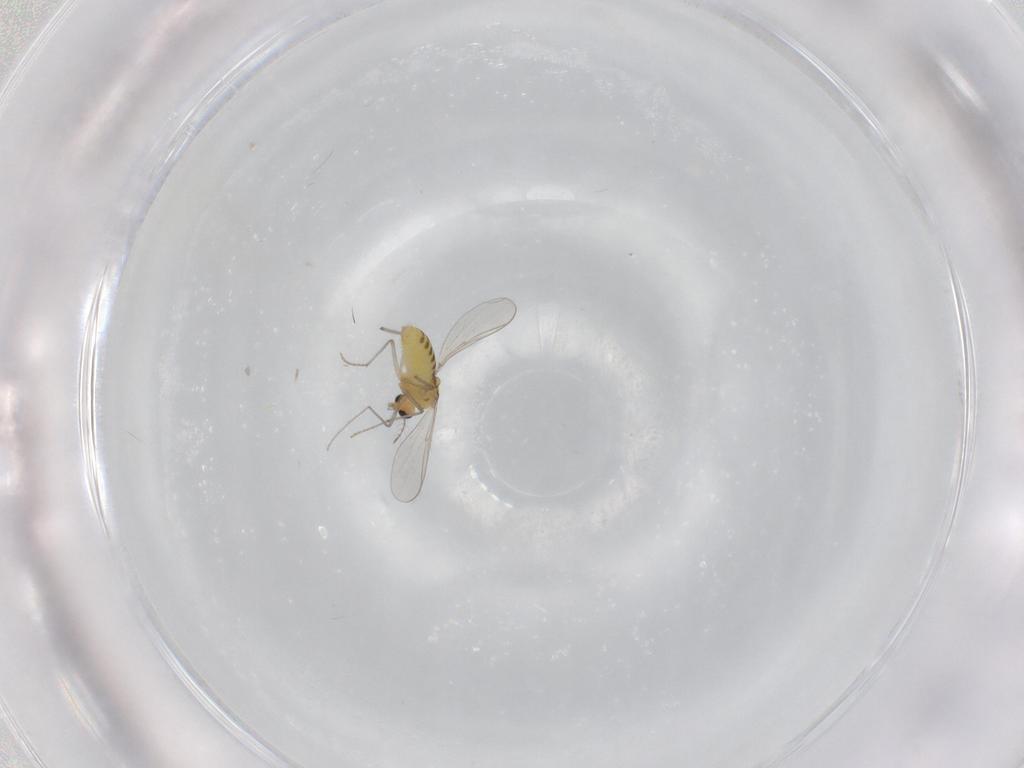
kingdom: Animalia
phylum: Arthropoda
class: Insecta
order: Diptera
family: Chironomidae
